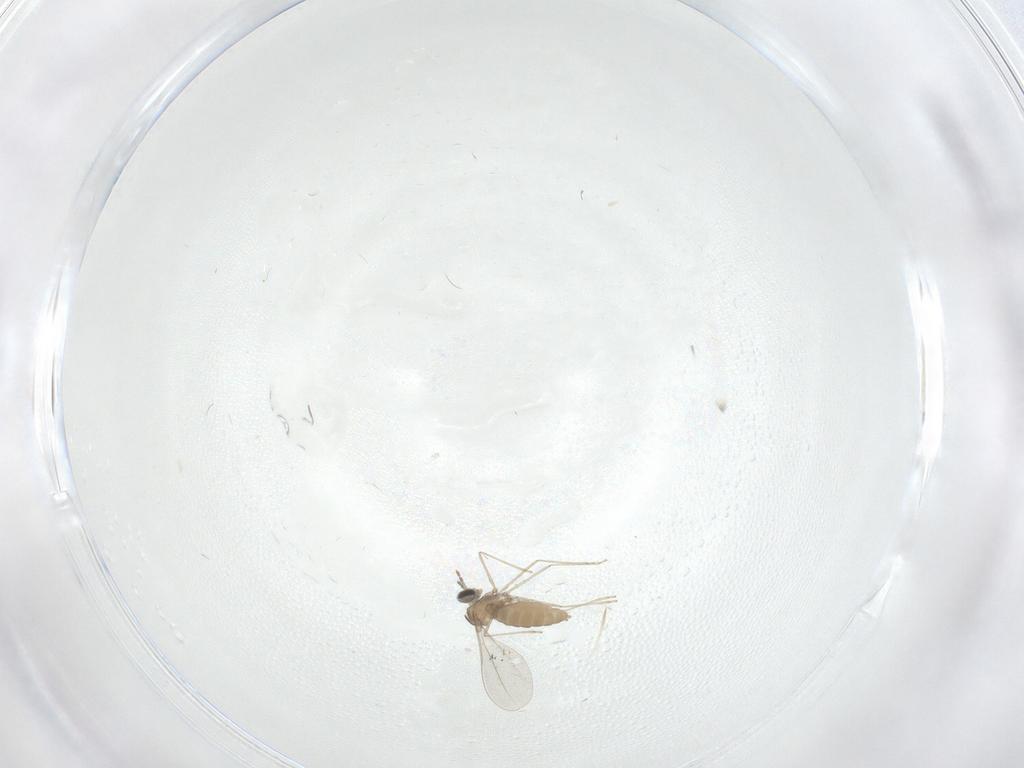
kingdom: Animalia
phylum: Arthropoda
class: Insecta
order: Diptera
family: Cecidomyiidae
